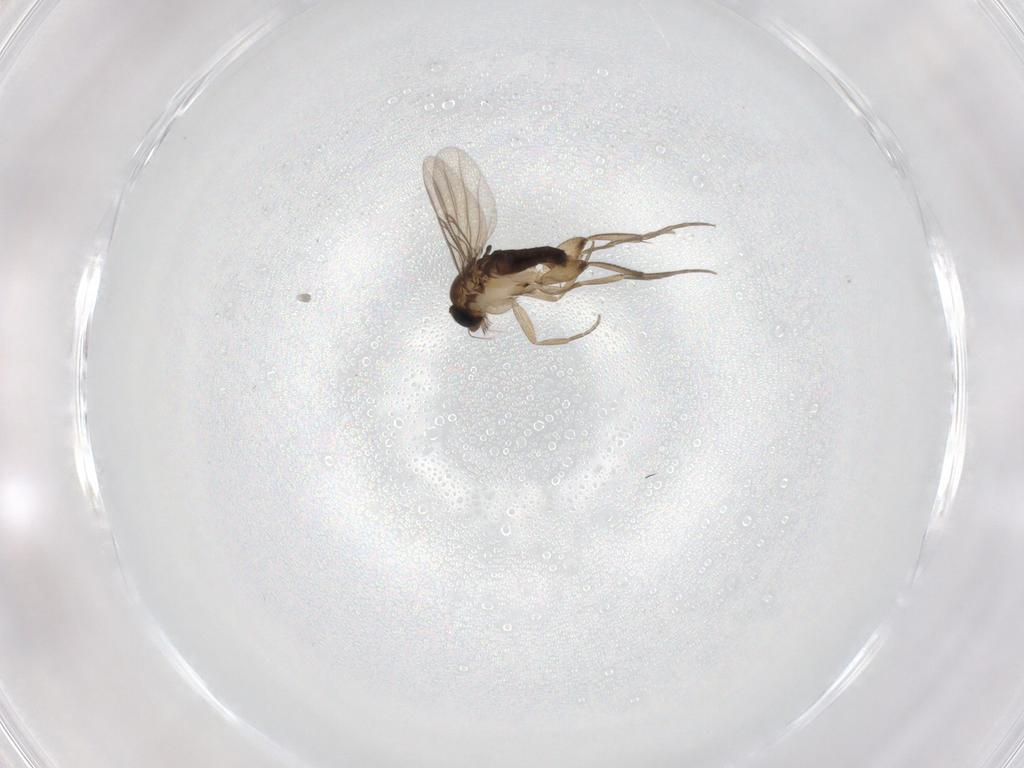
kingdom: Animalia
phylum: Arthropoda
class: Insecta
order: Diptera
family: Phoridae
